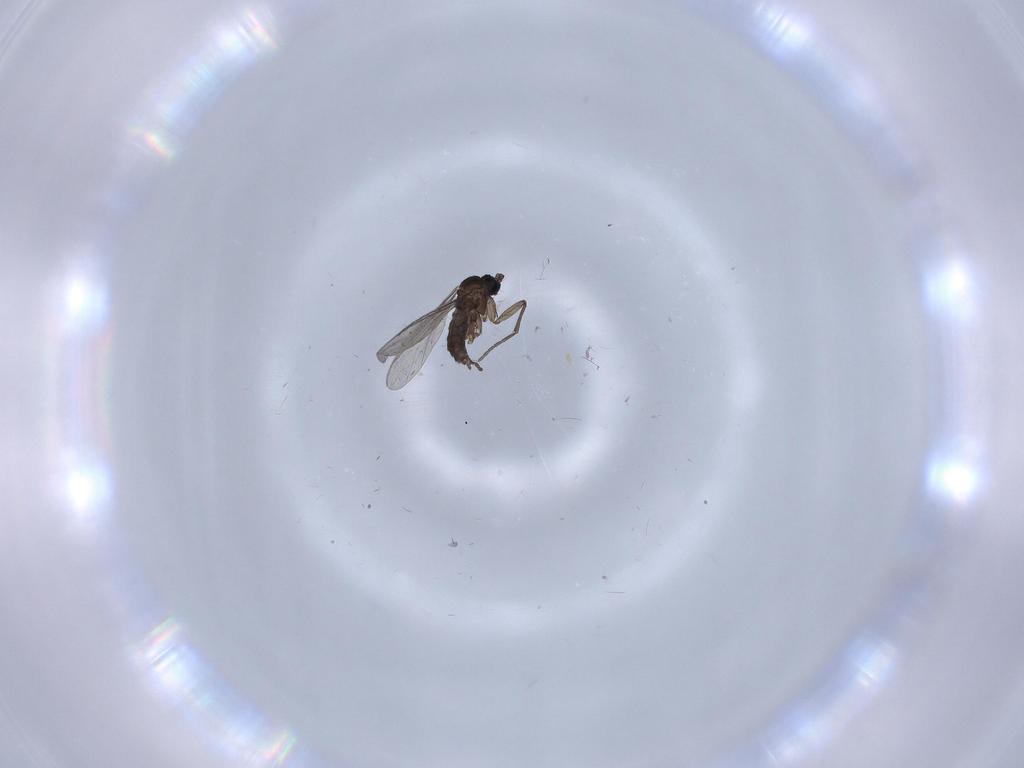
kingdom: Animalia
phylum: Arthropoda
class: Insecta
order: Diptera
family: Sciaridae
